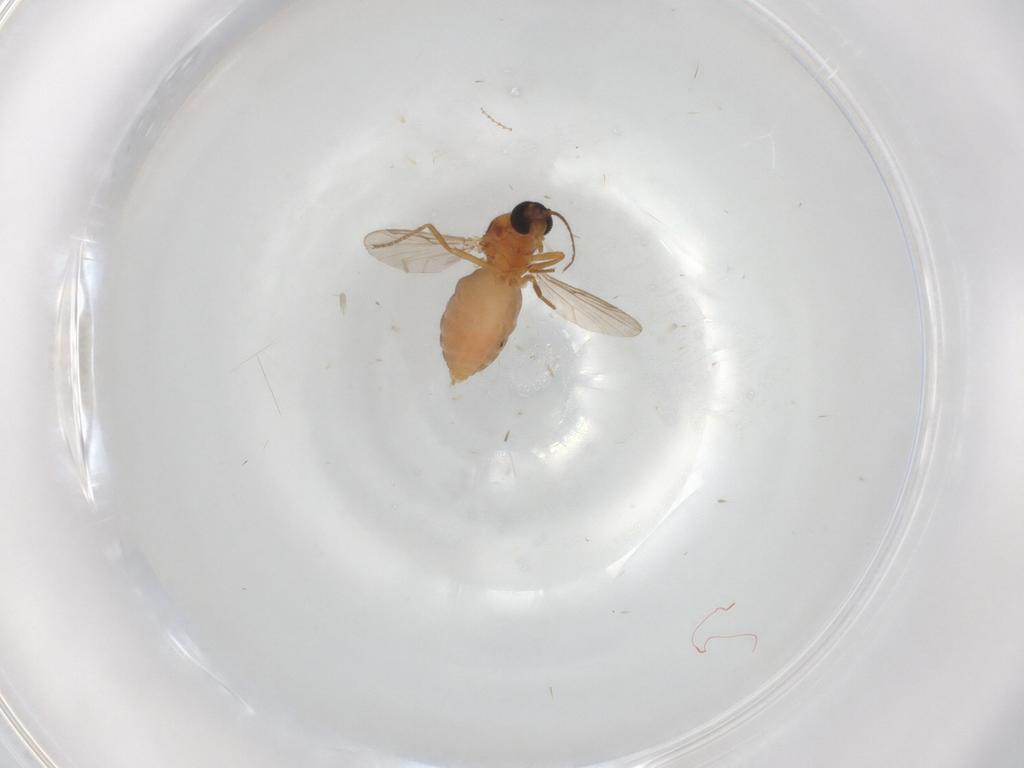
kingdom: Animalia
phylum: Arthropoda
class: Insecta
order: Diptera
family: Ceratopogonidae
